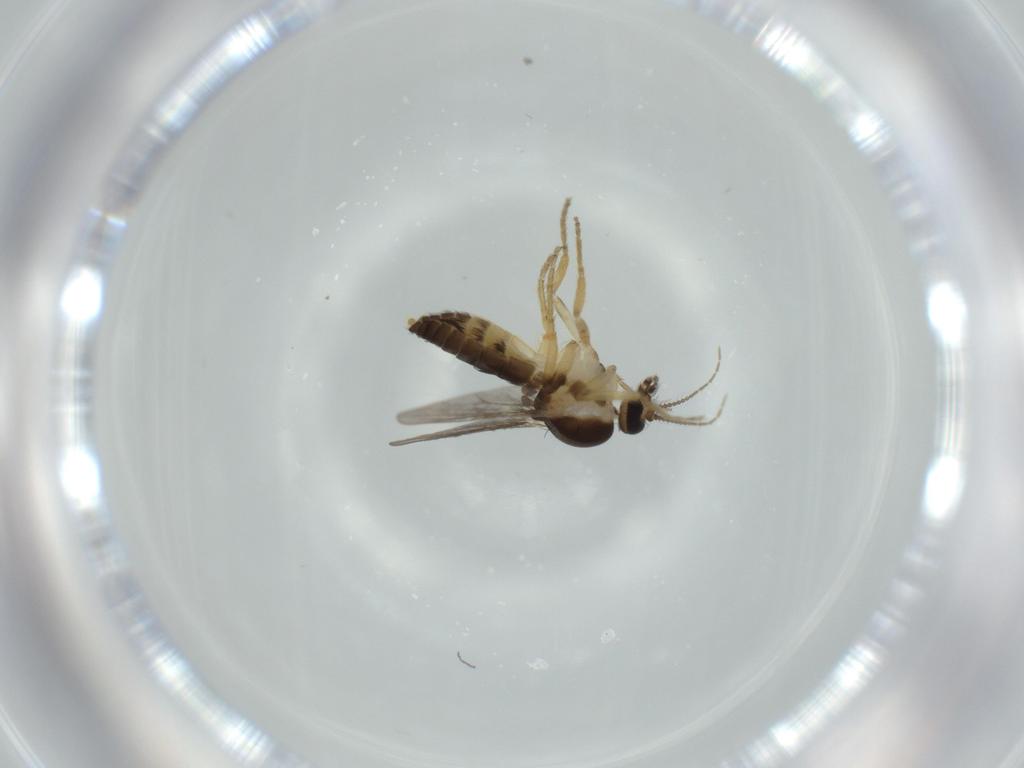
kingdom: Animalia
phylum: Arthropoda
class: Insecta
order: Diptera
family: Ceratopogonidae
